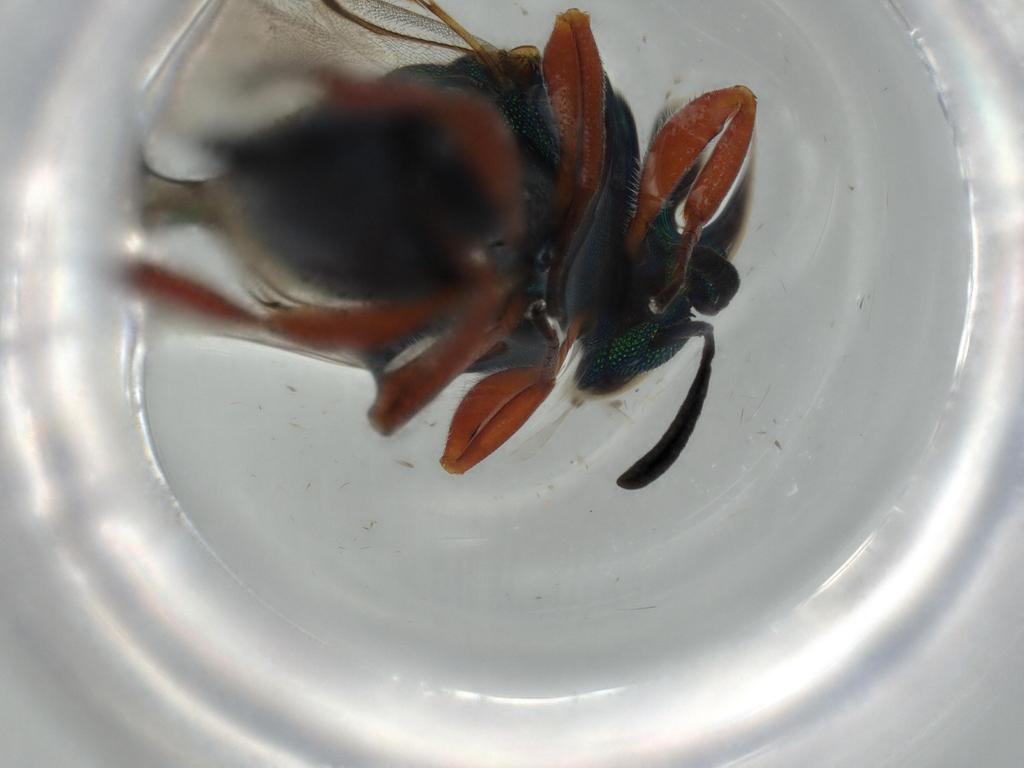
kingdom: Animalia
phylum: Arthropoda
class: Insecta
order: Hymenoptera
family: Lyciscidae
